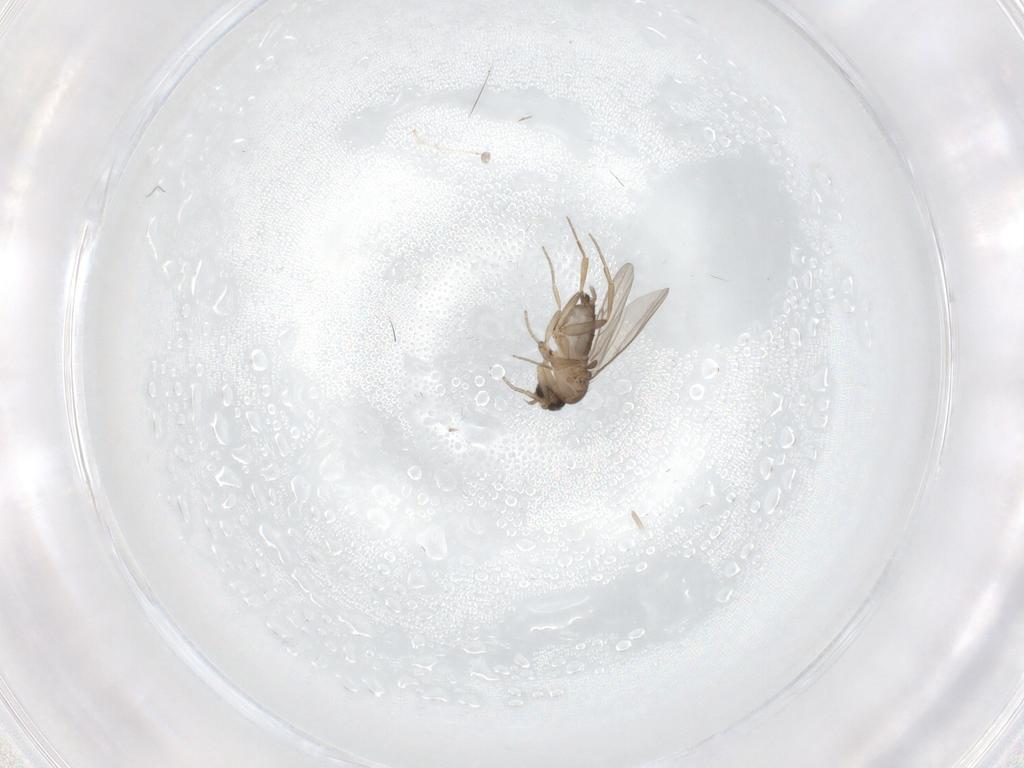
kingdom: Animalia
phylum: Arthropoda
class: Insecta
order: Diptera
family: Phoridae
